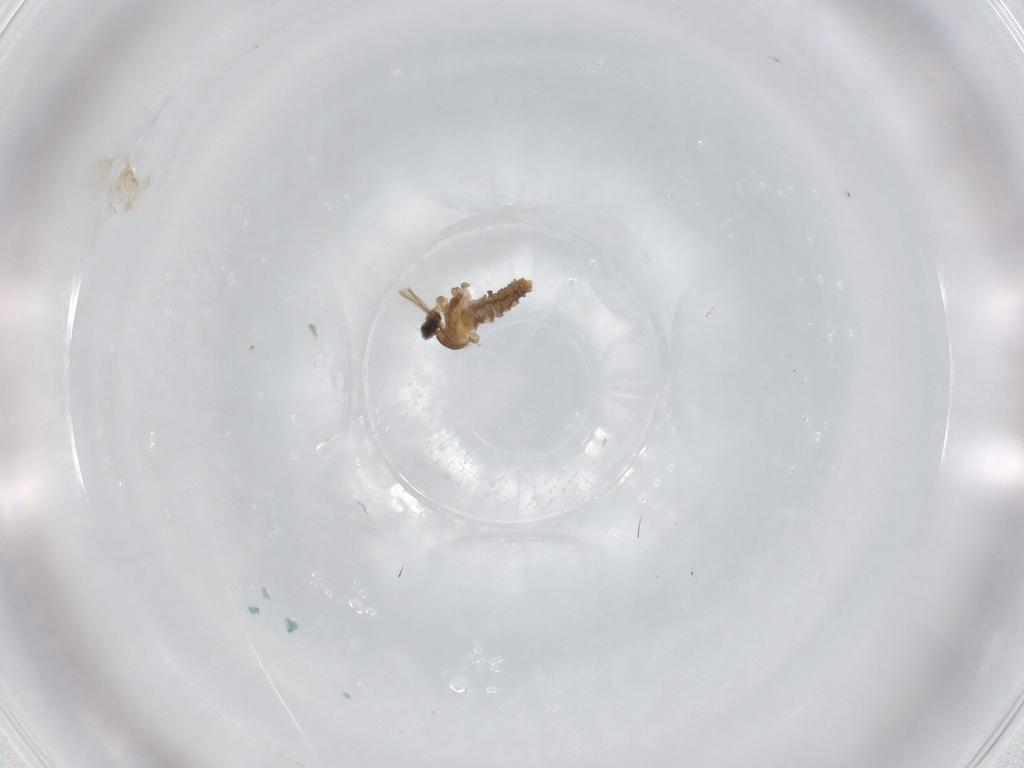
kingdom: Animalia
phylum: Arthropoda
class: Insecta
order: Diptera
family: Glossinidae
